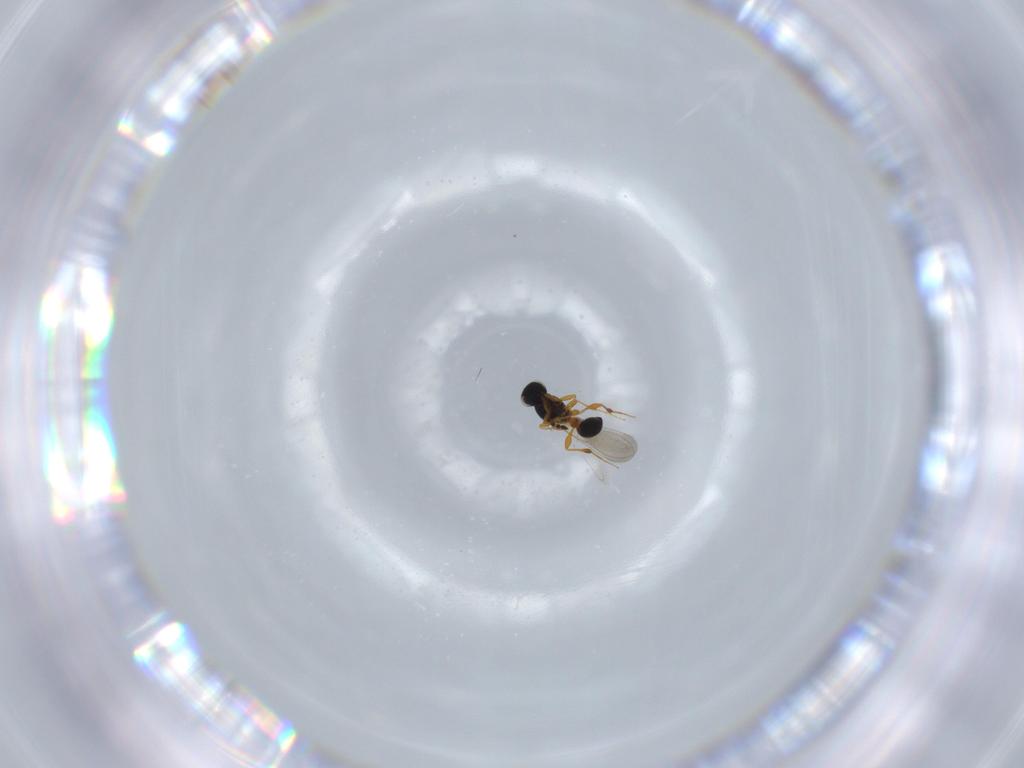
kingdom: Animalia
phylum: Arthropoda
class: Insecta
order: Hymenoptera
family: Platygastridae
